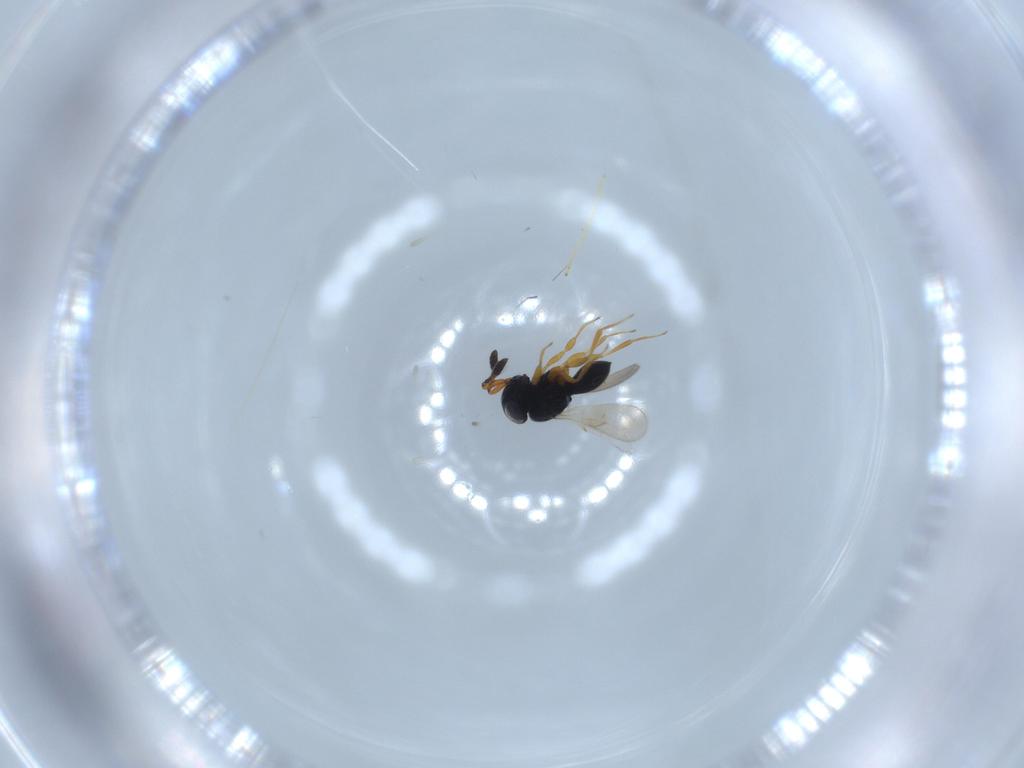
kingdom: Animalia
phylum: Arthropoda
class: Insecta
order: Hymenoptera
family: Scelionidae
